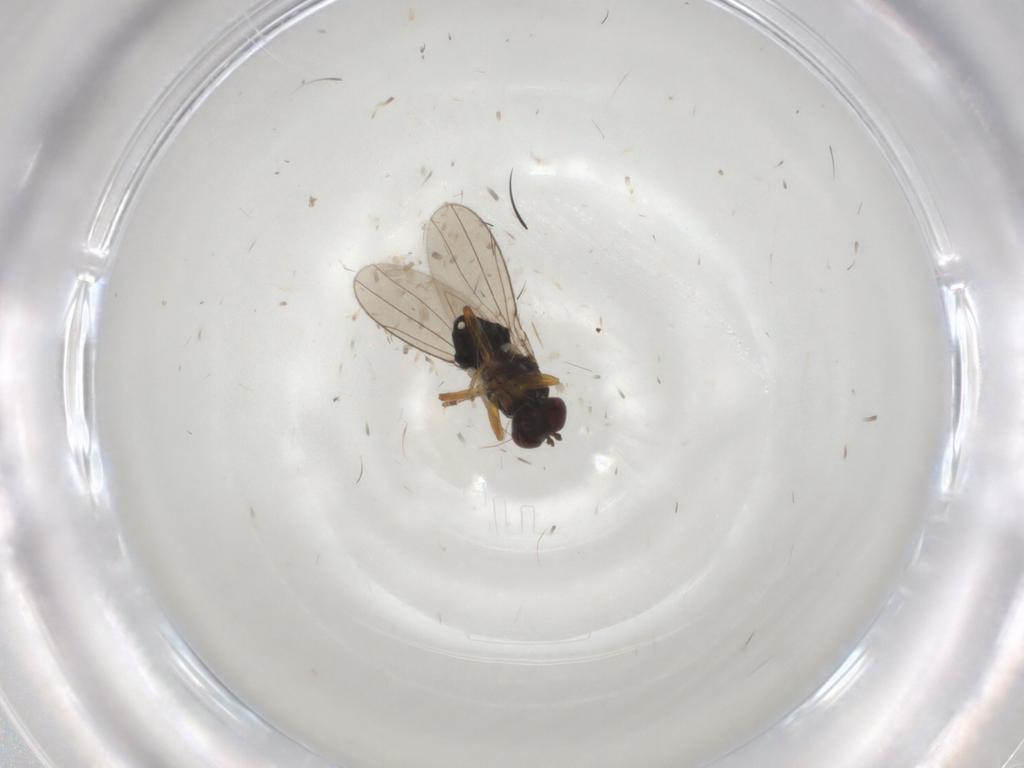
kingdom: Animalia
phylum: Arthropoda
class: Insecta
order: Diptera
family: Ephydridae
